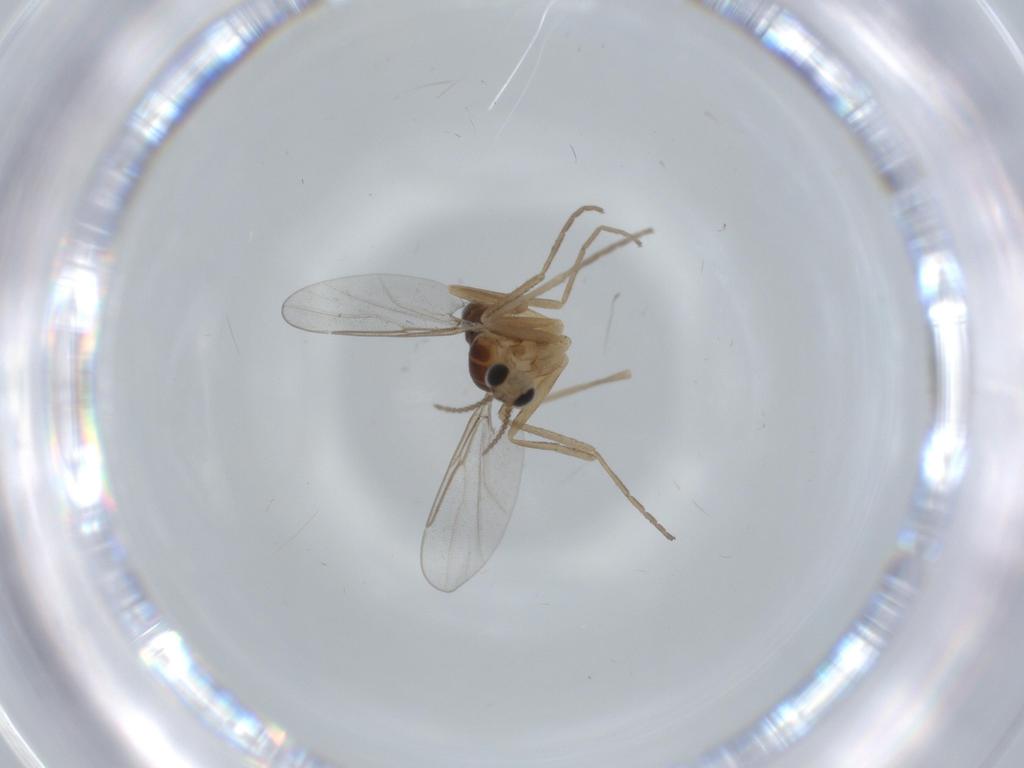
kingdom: Animalia
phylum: Arthropoda
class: Insecta
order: Diptera
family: Cecidomyiidae
